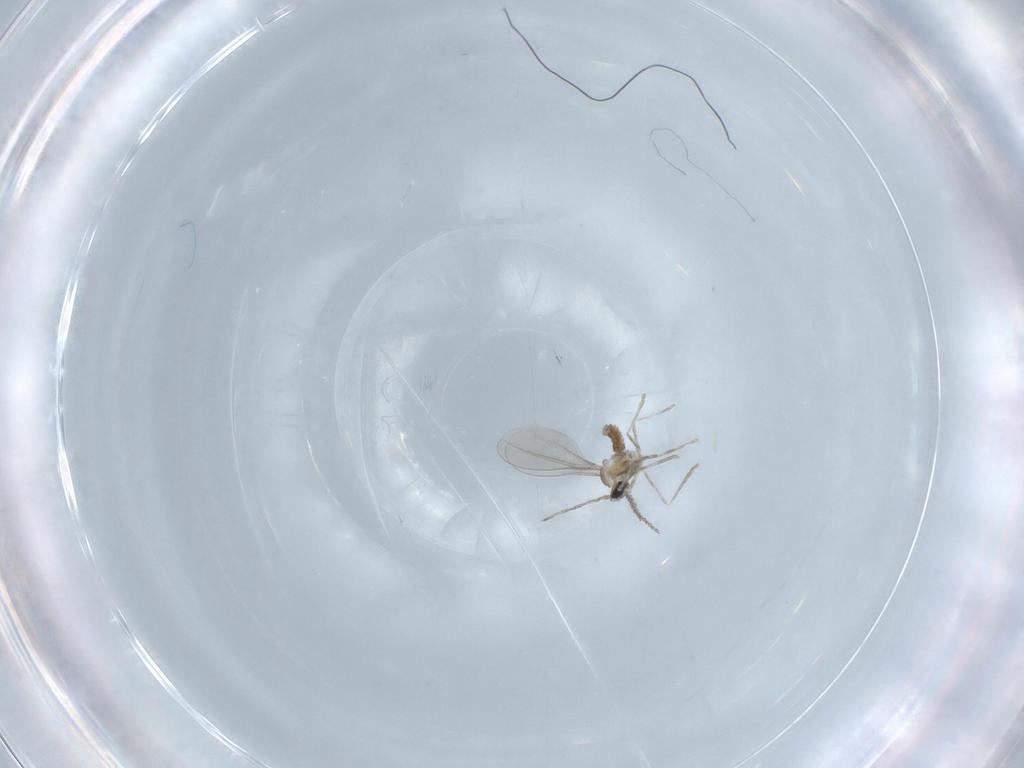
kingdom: Animalia
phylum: Arthropoda
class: Insecta
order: Diptera
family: Cecidomyiidae
